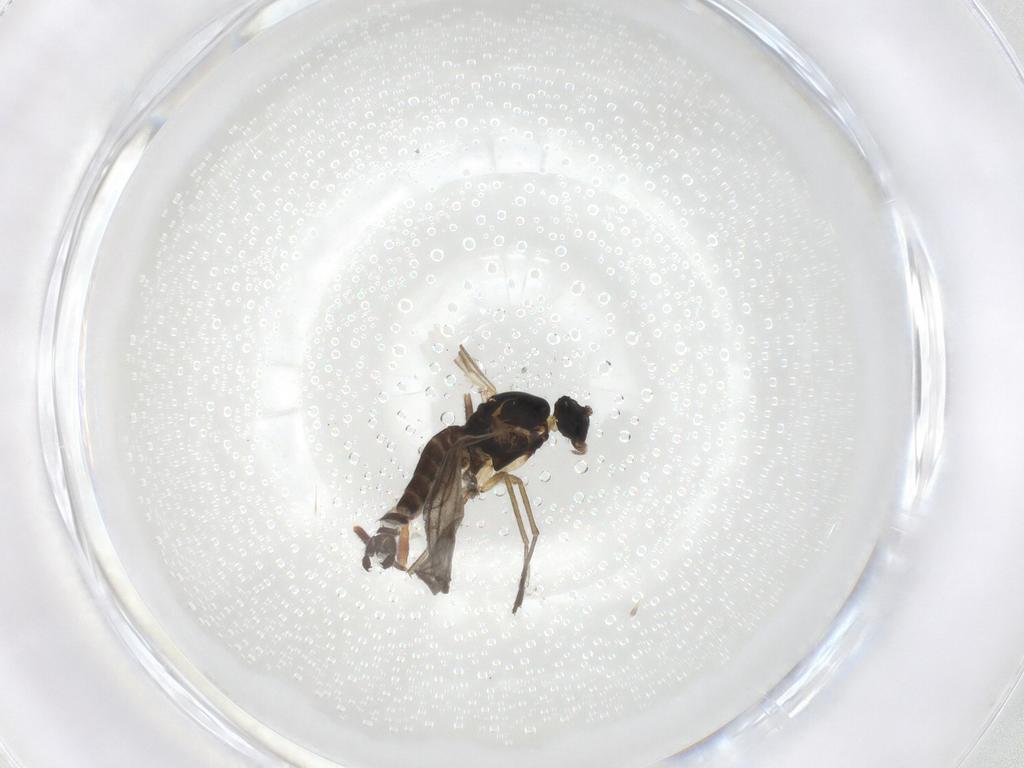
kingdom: Animalia
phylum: Arthropoda
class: Insecta
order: Diptera
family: Sciaridae
